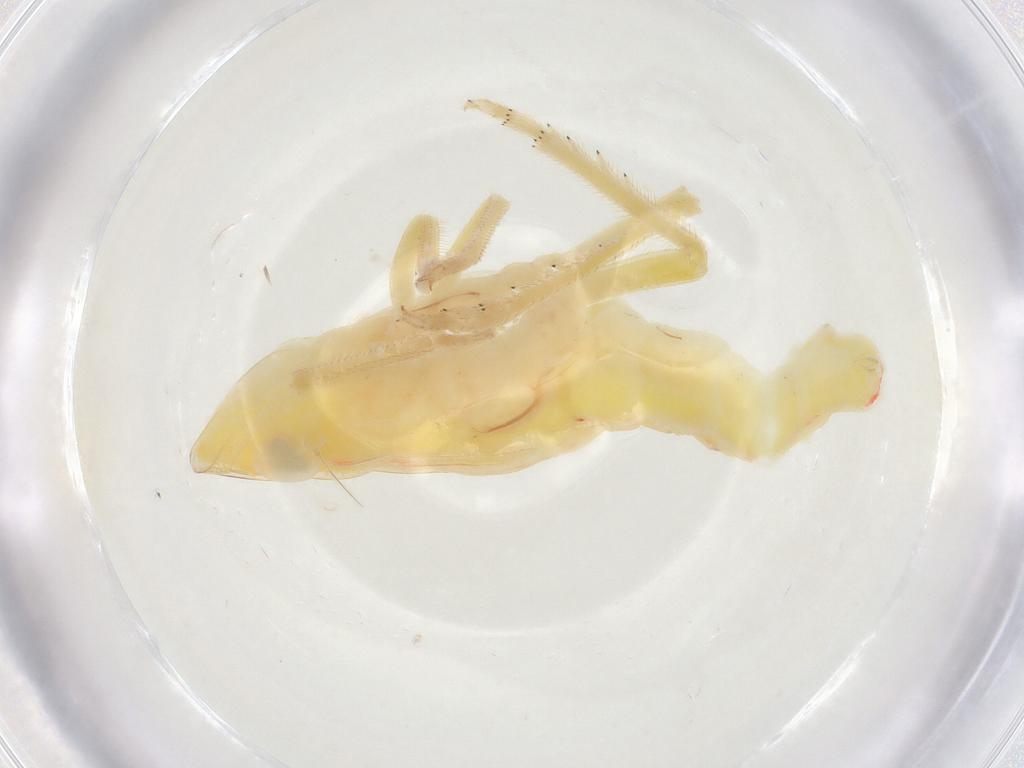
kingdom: Animalia
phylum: Arthropoda
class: Insecta
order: Hemiptera
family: Tropiduchidae
